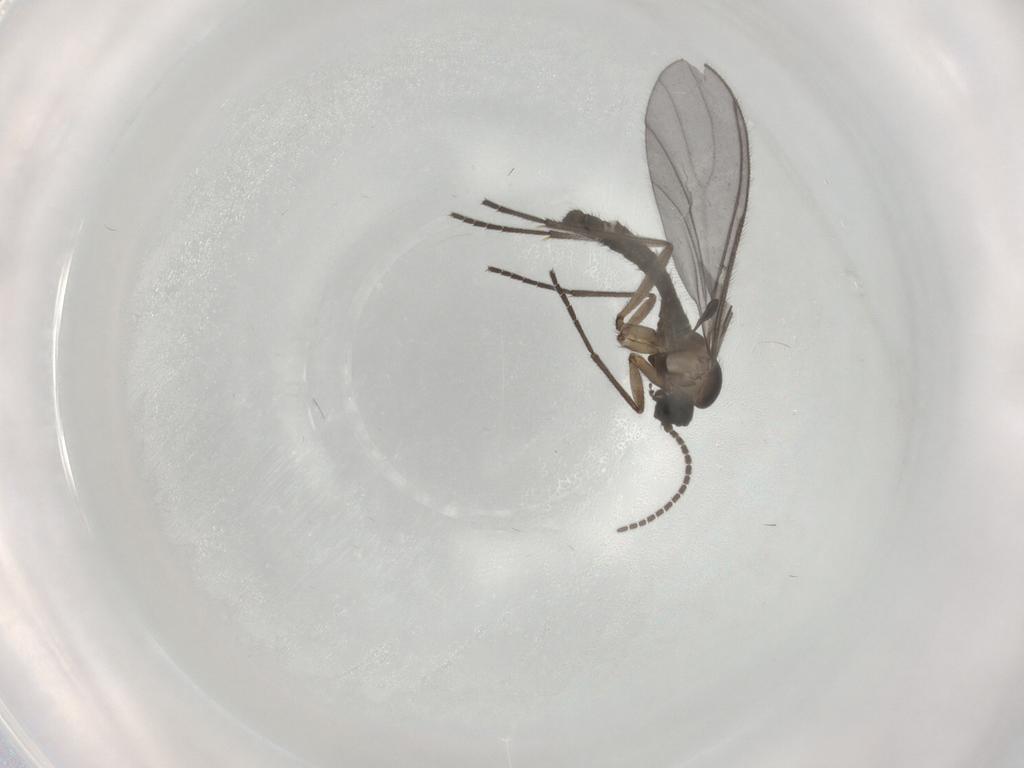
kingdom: Animalia
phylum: Arthropoda
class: Insecta
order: Diptera
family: Sciaridae
